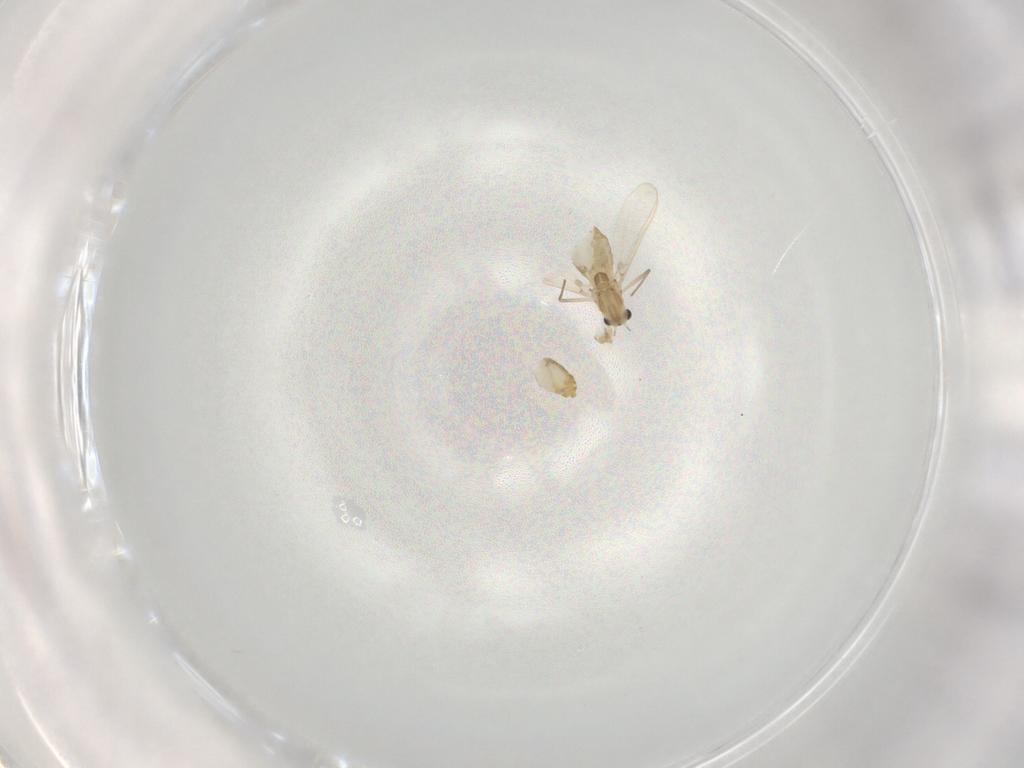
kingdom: Animalia
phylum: Arthropoda
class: Insecta
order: Diptera
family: Chironomidae
